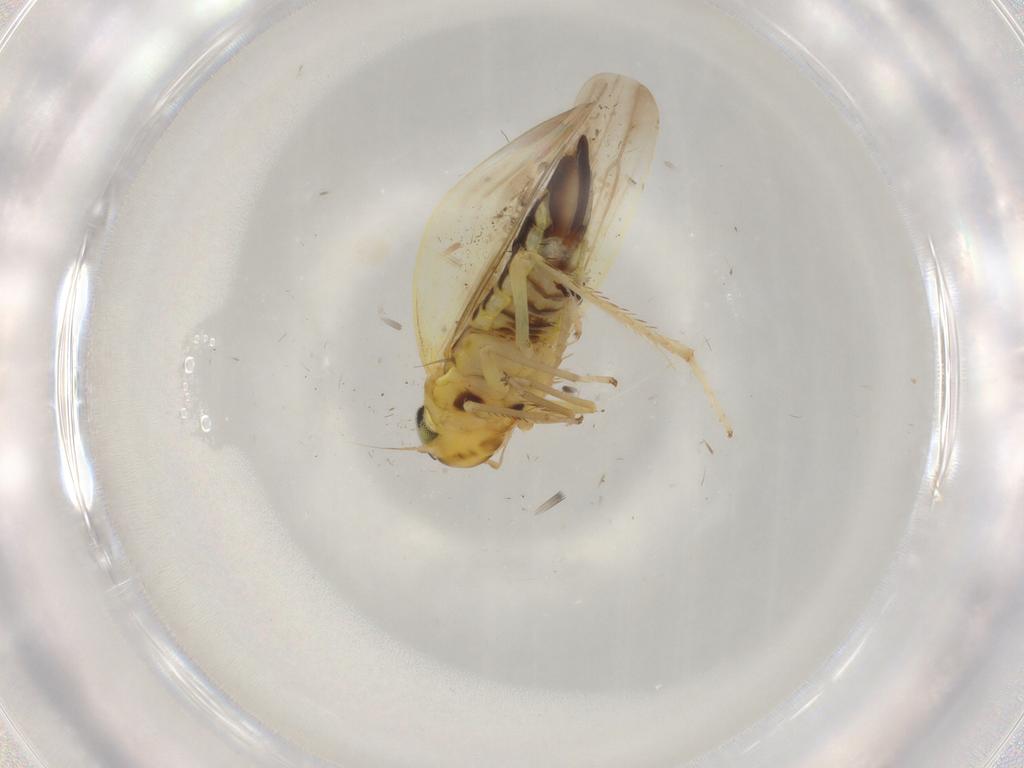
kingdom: Animalia
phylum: Arthropoda
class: Insecta
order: Hemiptera
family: Cicadellidae
